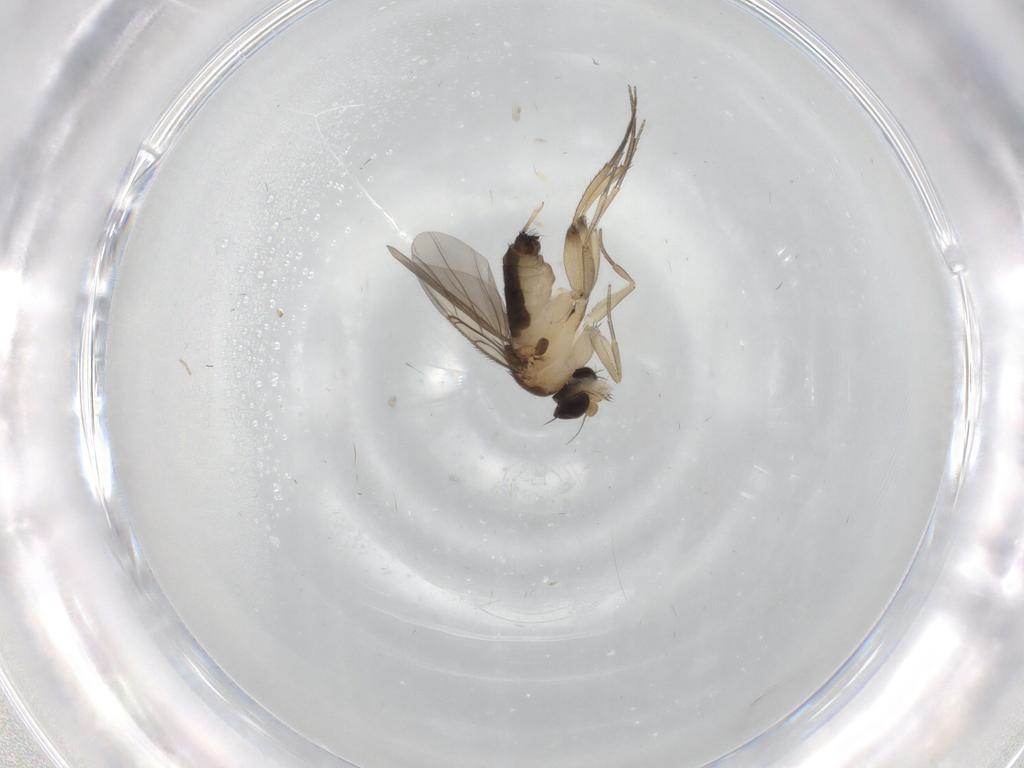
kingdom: Animalia
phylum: Arthropoda
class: Insecta
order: Diptera
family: Phoridae
